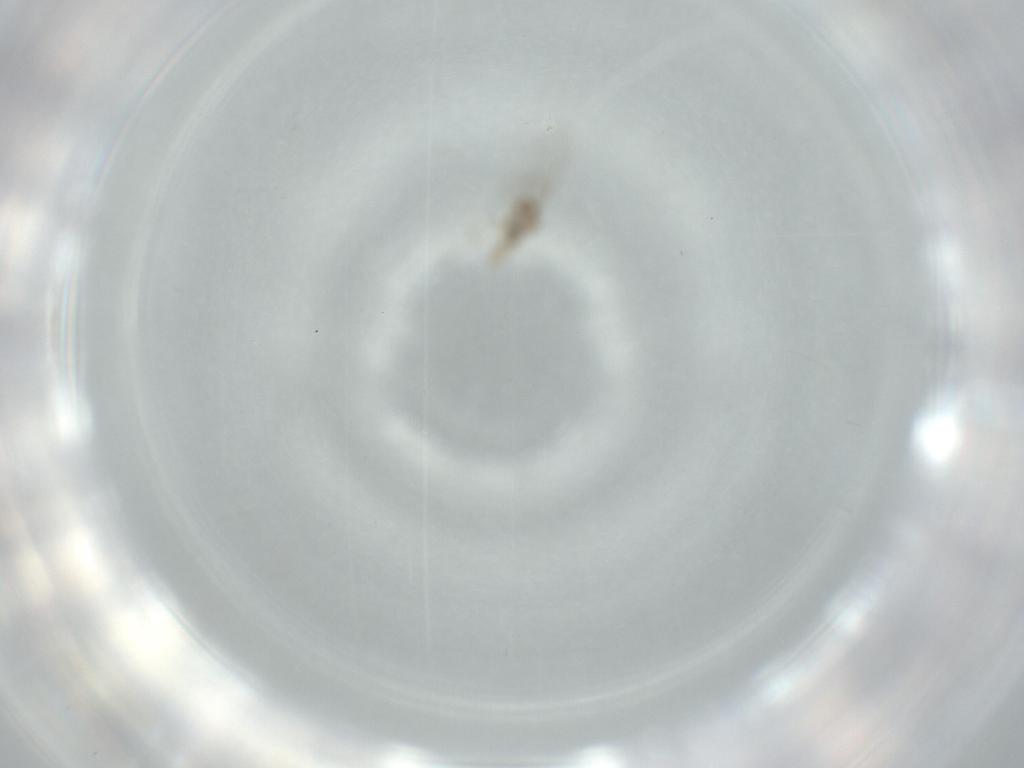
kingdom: Animalia
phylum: Arthropoda
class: Insecta
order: Diptera
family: Cecidomyiidae
